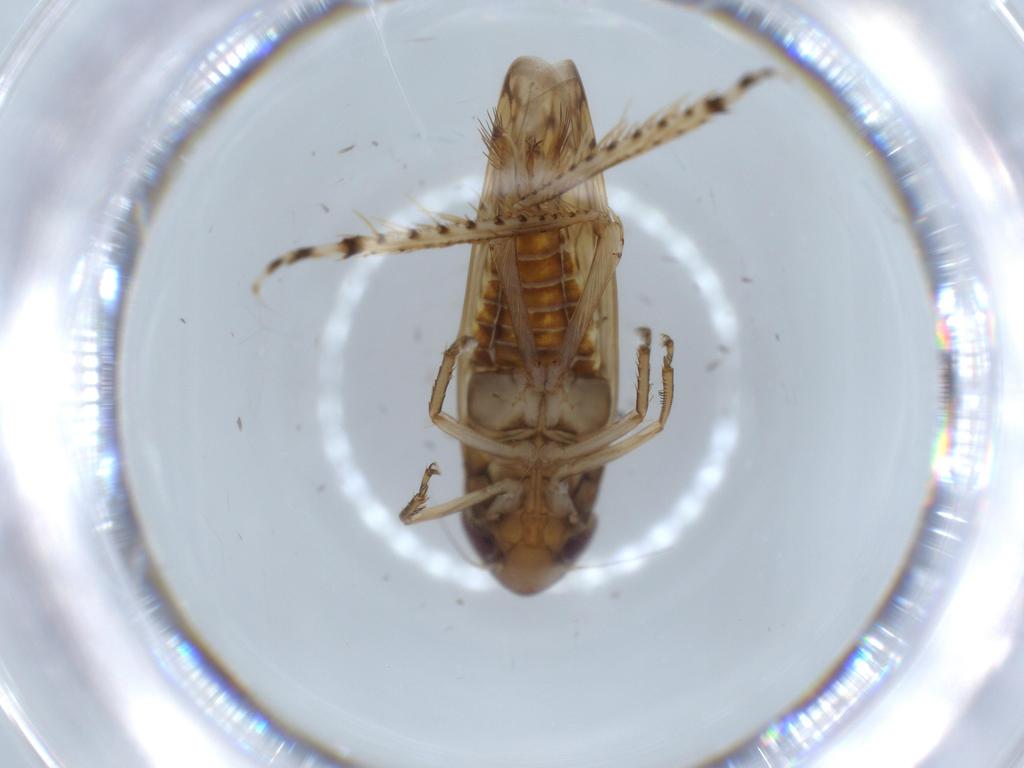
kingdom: Animalia
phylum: Arthropoda
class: Insecta
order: Hemiptera
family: Cicadellidae
